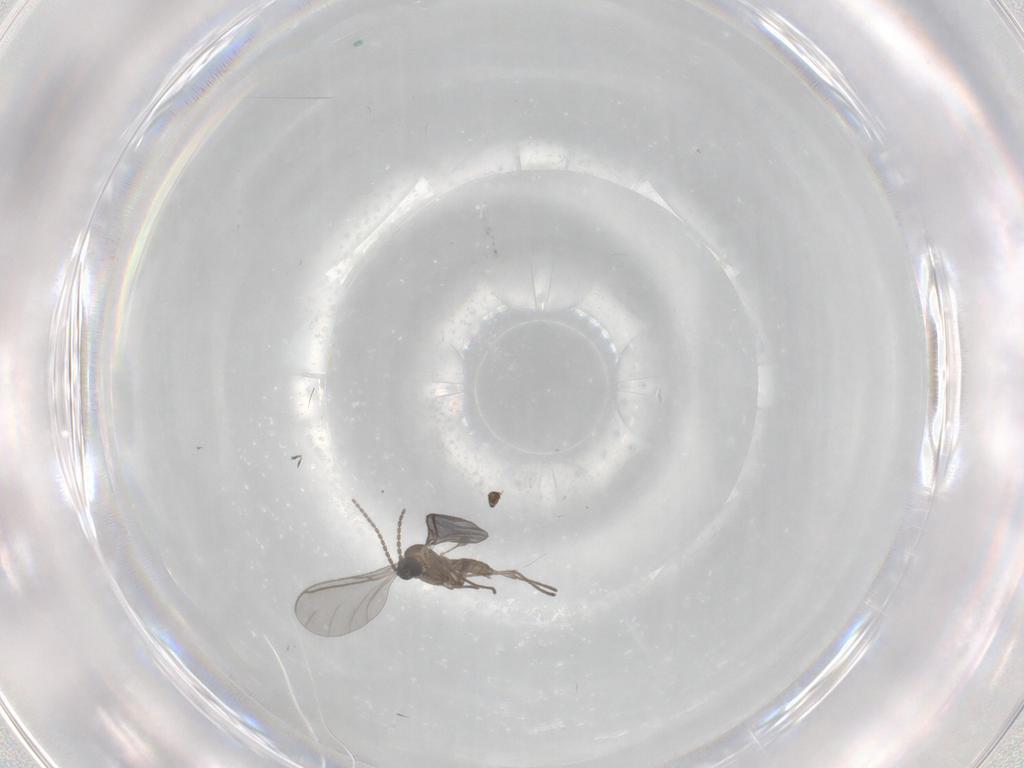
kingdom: Animalia
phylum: Arthropoda
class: Insecta
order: Diptera
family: Sciaridae
